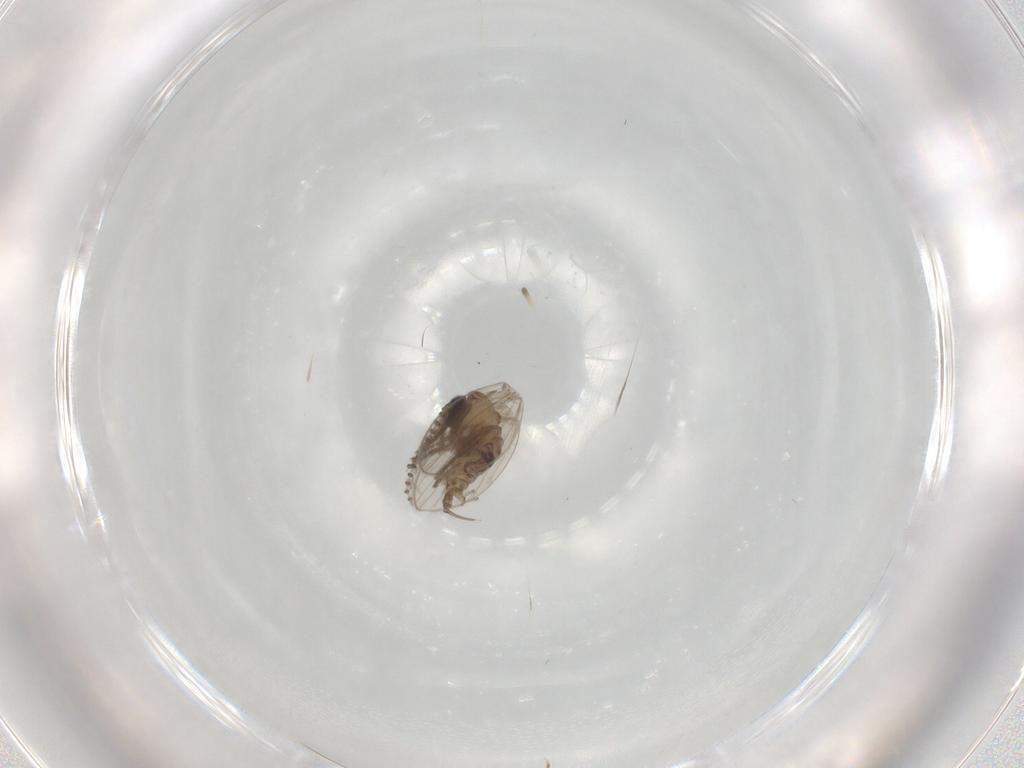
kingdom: Animalia
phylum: Arthropoda
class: Insecta
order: Diptera
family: Psychodidae
